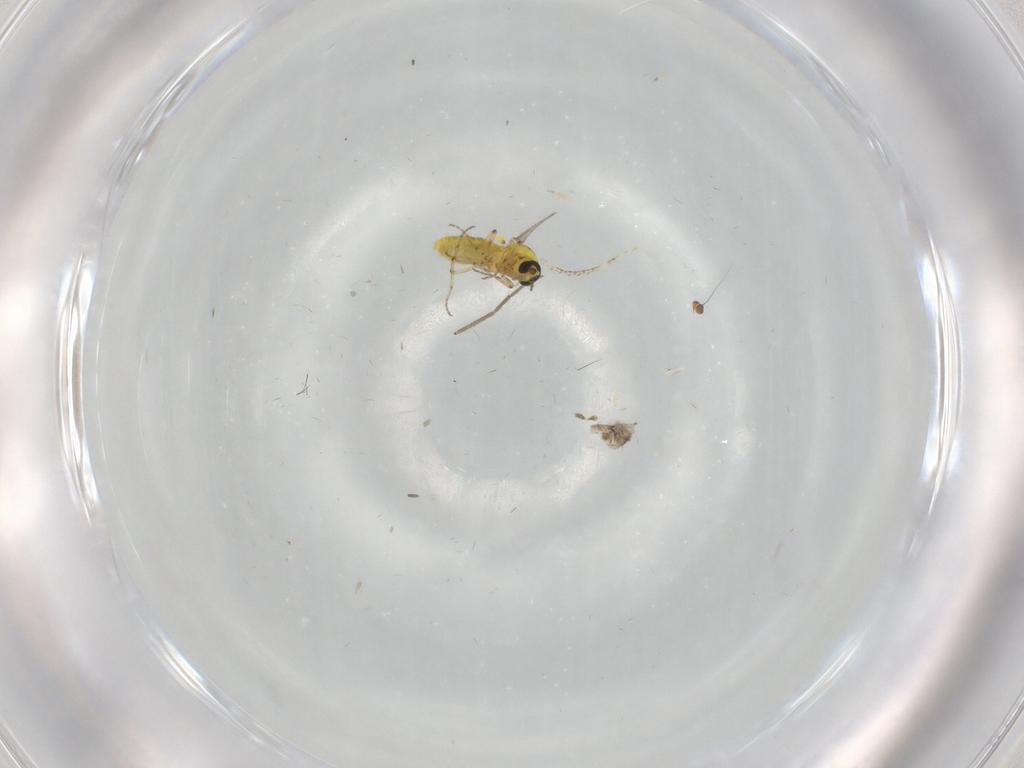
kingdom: Animalia
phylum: Arthropoda
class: Insecta
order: Diptera
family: Ceratopogonidae
